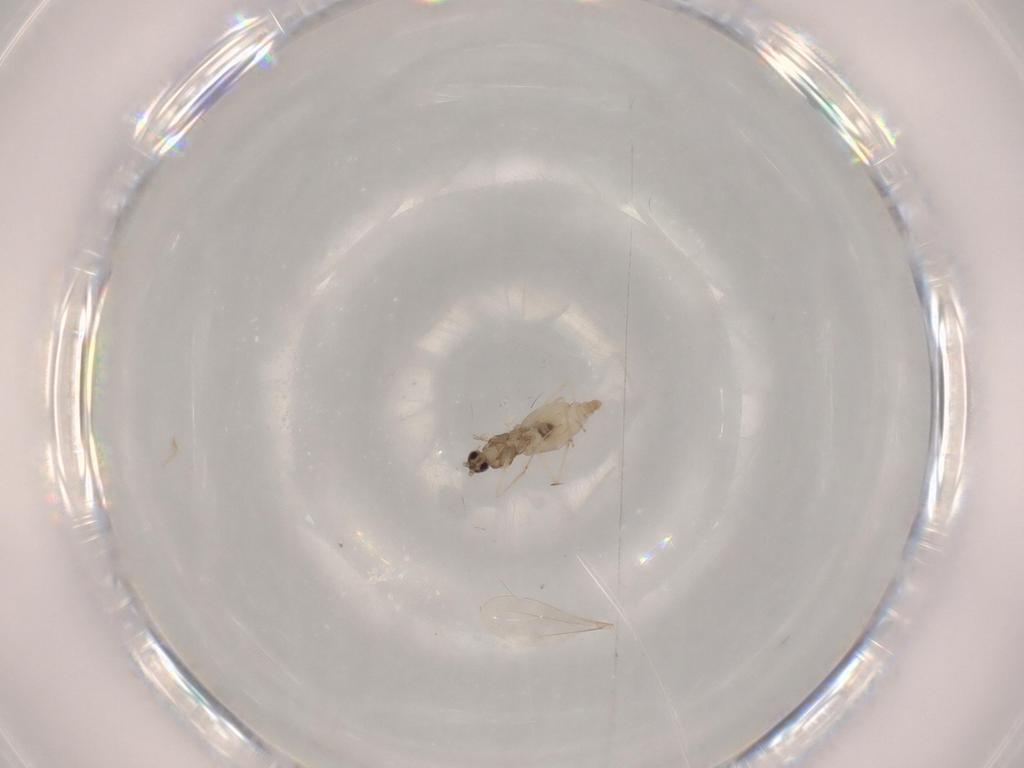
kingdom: Animalia
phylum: Arthropoda
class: Insecta
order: Diptera
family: Cecidomyiidae
